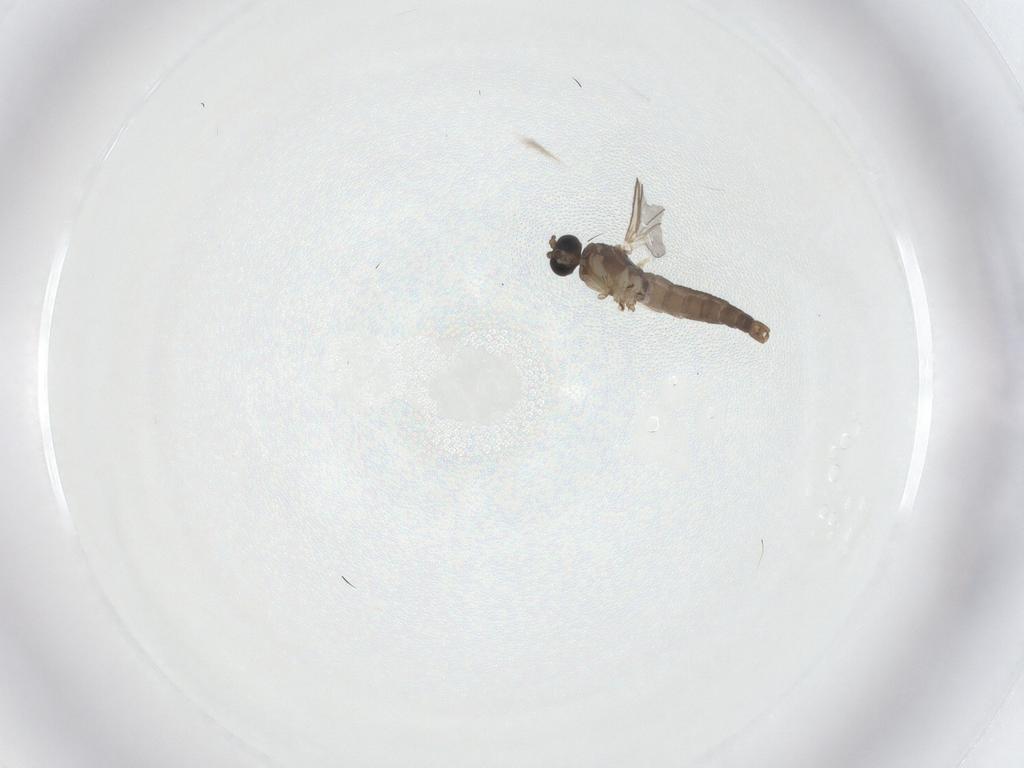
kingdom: Animalia
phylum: Arthropoda
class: Insecta
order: Diptera
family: Sciaridae
